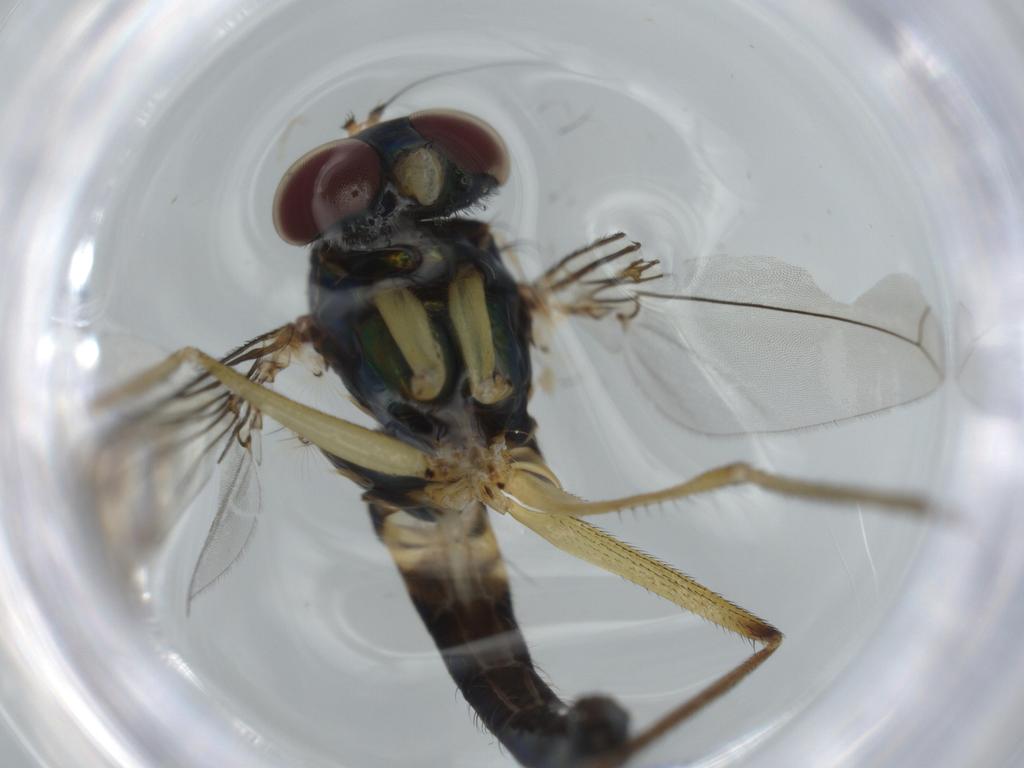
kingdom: Animalia
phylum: Arthropoda
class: Insecta
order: Diptera
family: Dolichopodidae
